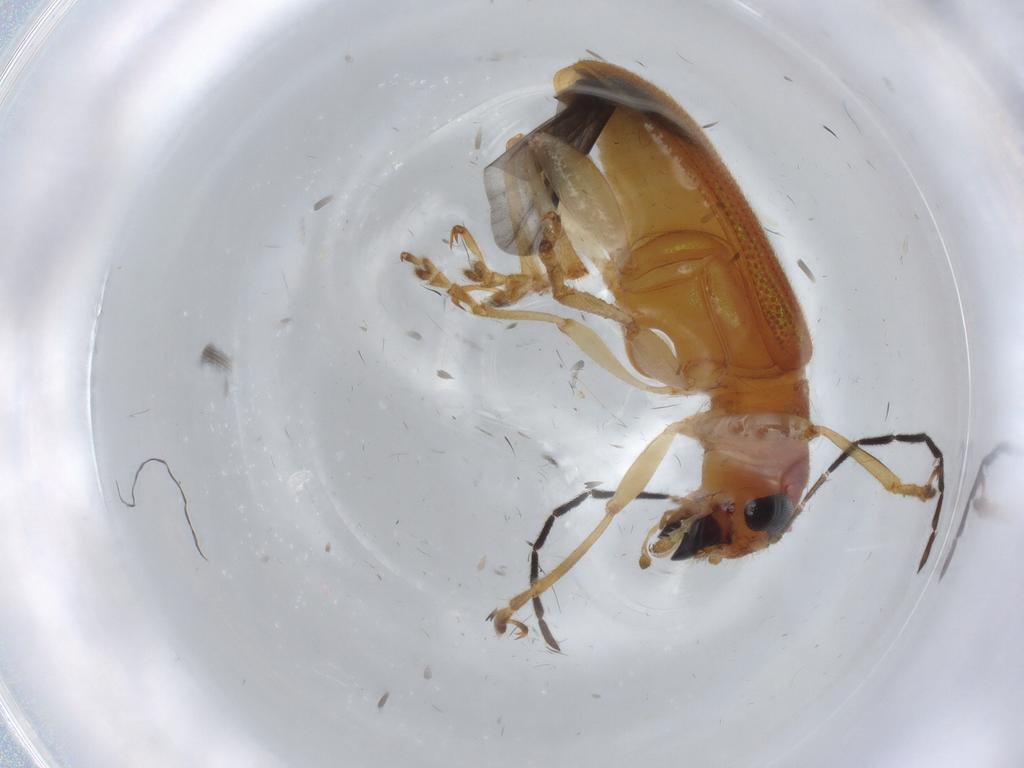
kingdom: Animalia
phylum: Arthropoda
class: Insecta
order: Coleoptera
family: Chrysomelidae
